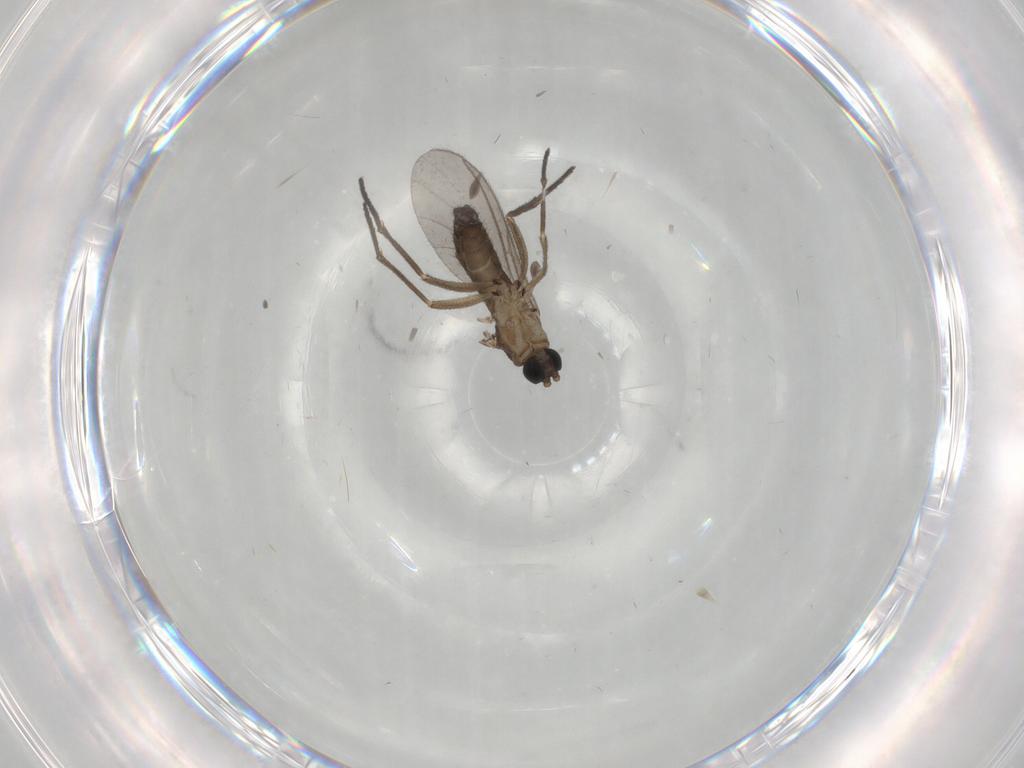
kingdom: Animalia
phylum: Arthropoda
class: Insecta
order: Diptera
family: Sciaridae
